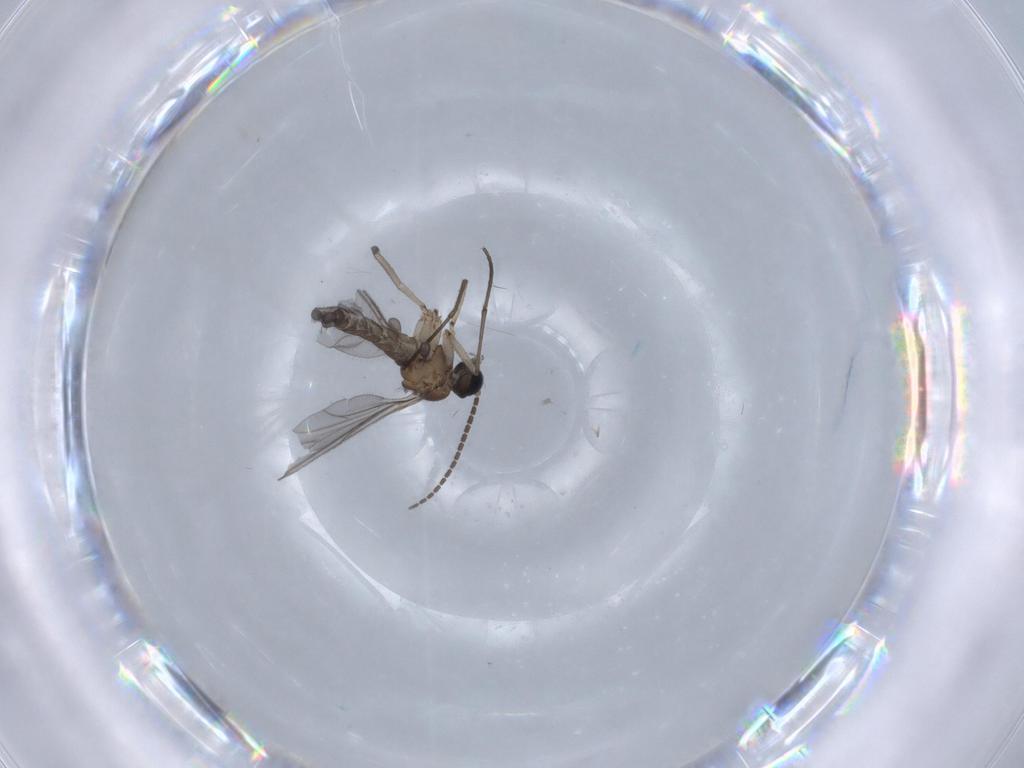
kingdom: Animalia
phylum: Arthropoda
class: Insecta
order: Diptera
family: Sciaridae
